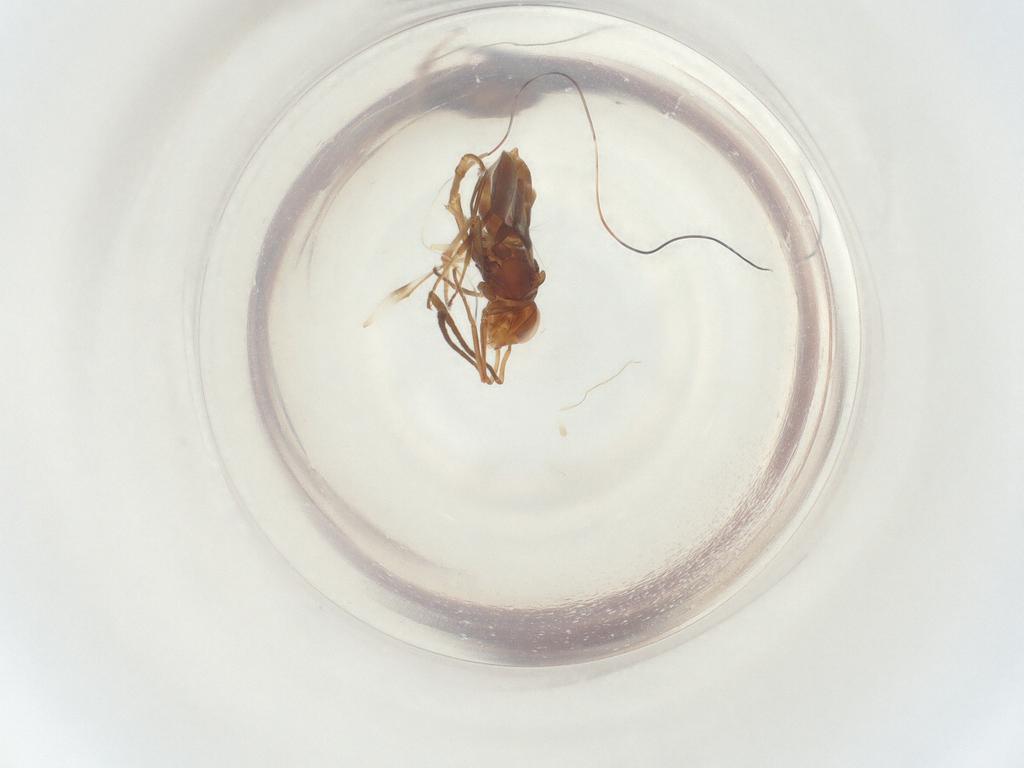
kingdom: Animalia
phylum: Arthropoda
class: Insecta
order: Hymenoptera
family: Encyrtidae
